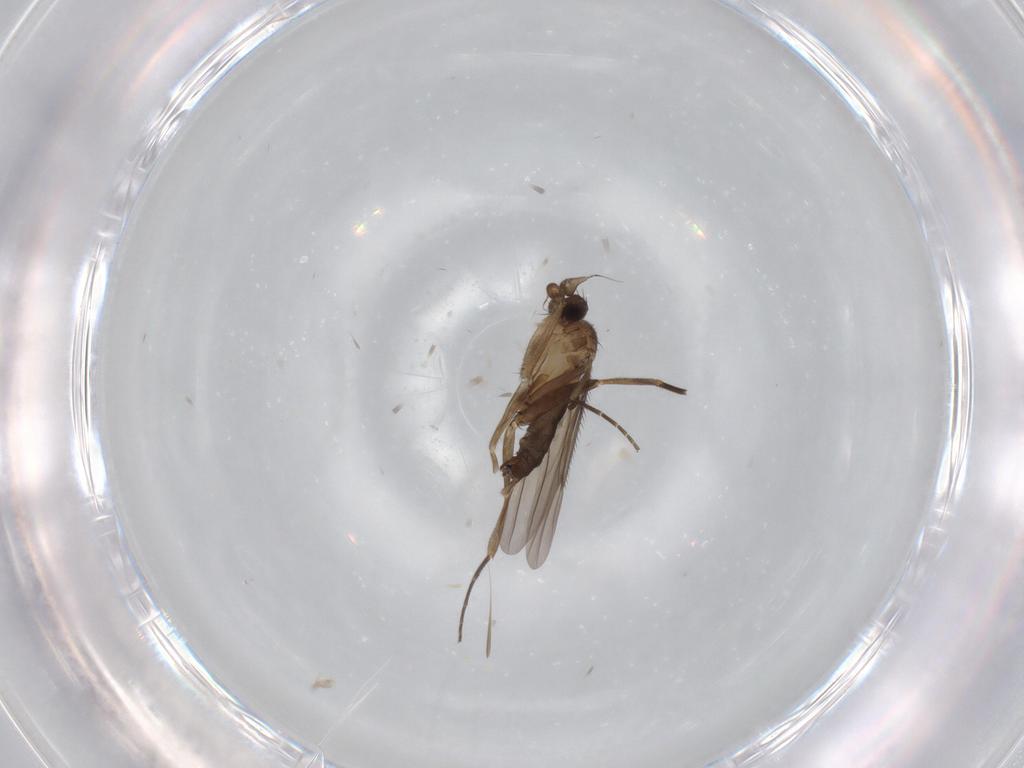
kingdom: Animalia
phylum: Arthropoda
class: Insecta
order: Diptera
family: Phoridae
